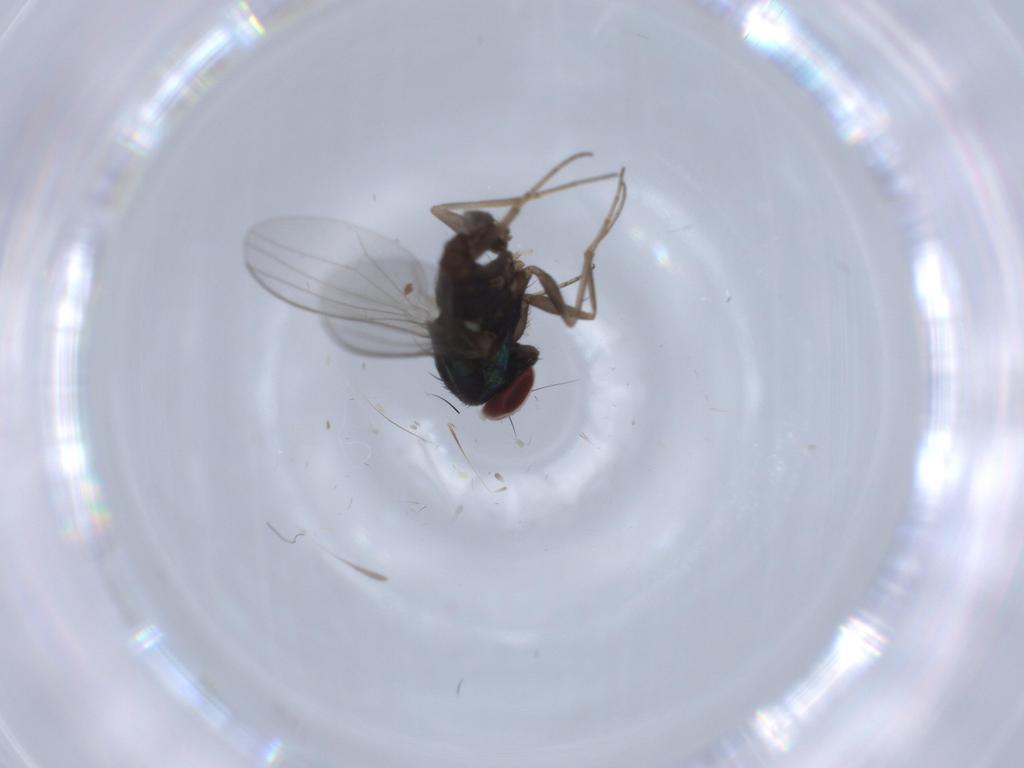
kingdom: Animalia
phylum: Arthropoda
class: Insecta
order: Diptera
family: Dolichopodidae
